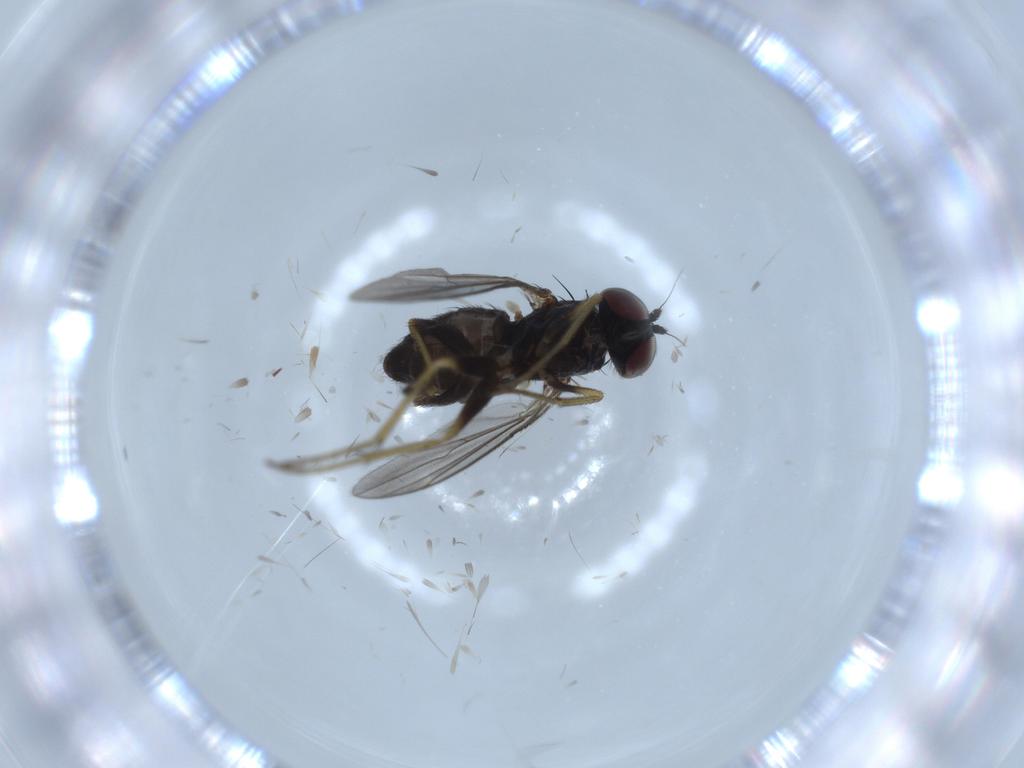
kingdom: Animalia
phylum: Arthropoda
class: Insecta
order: Diptera
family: Dolichopodidae
